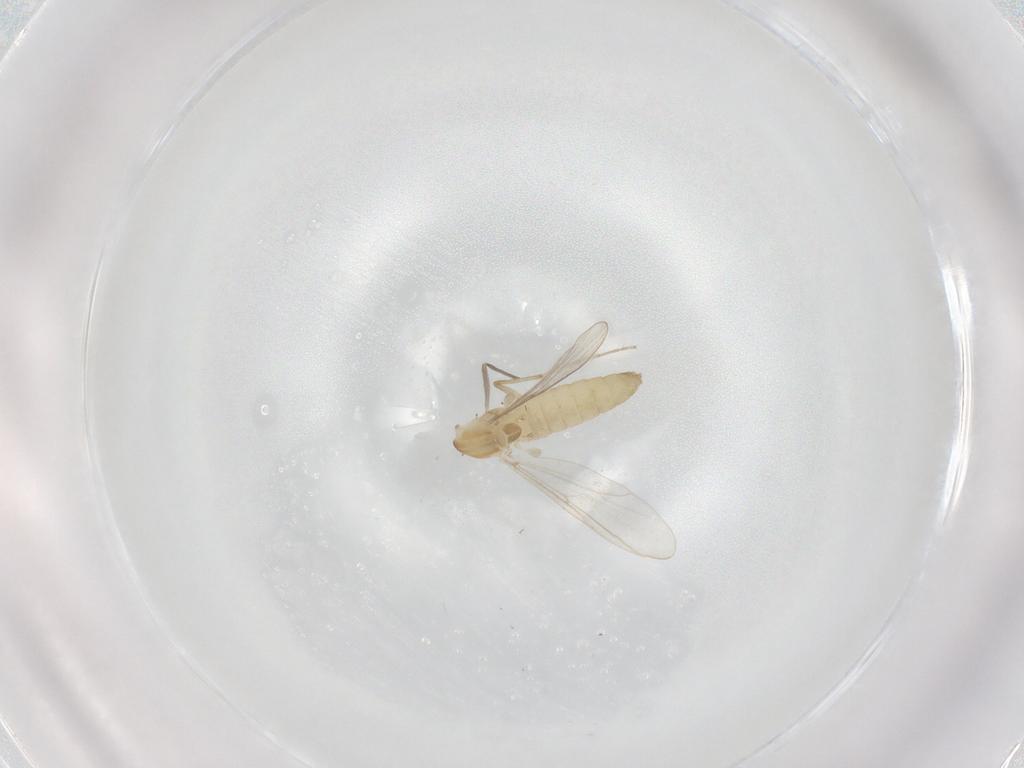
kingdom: Animalia
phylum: Arthropoda
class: Insecta
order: Diptera
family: Chironomidae
